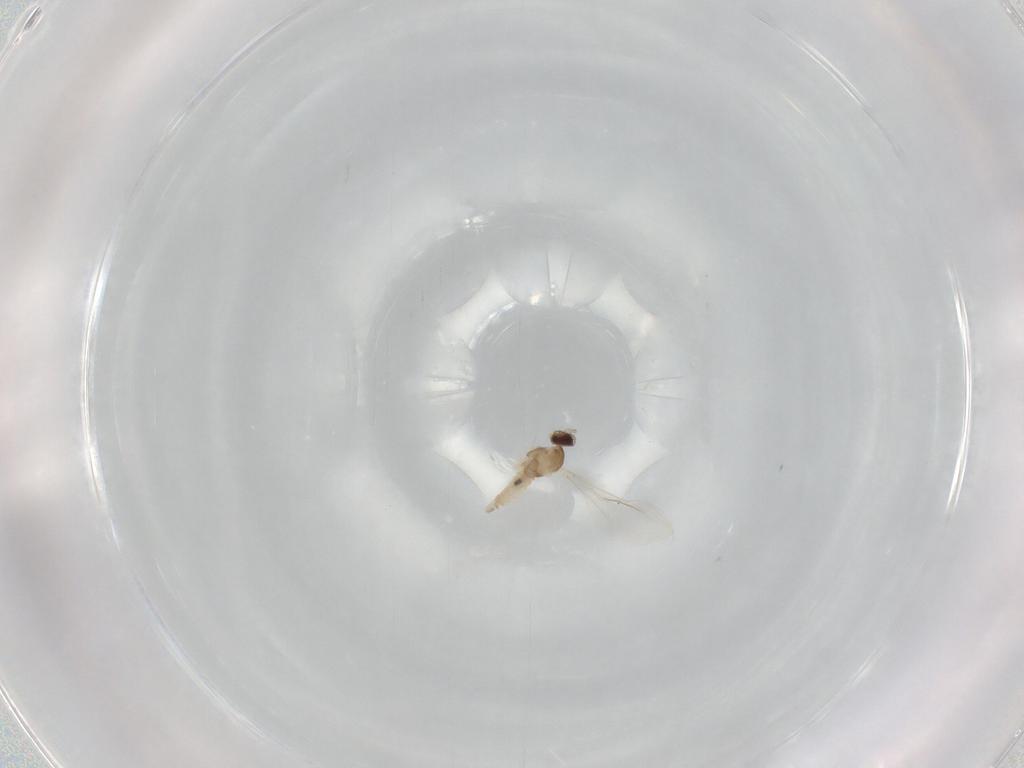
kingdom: Animalia
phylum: Arthropoda
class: Insecta
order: Diptera
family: Anthomyiidae
